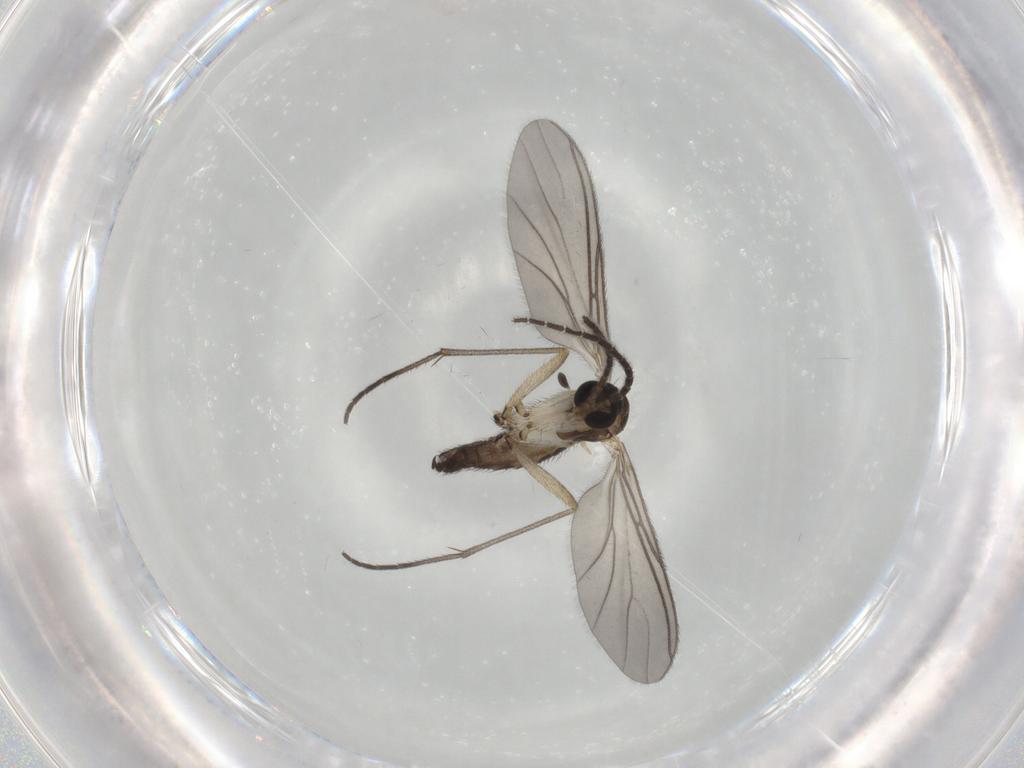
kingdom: Animalia
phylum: Arthropoda
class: Insecta
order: Diptera
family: Sciaridae
